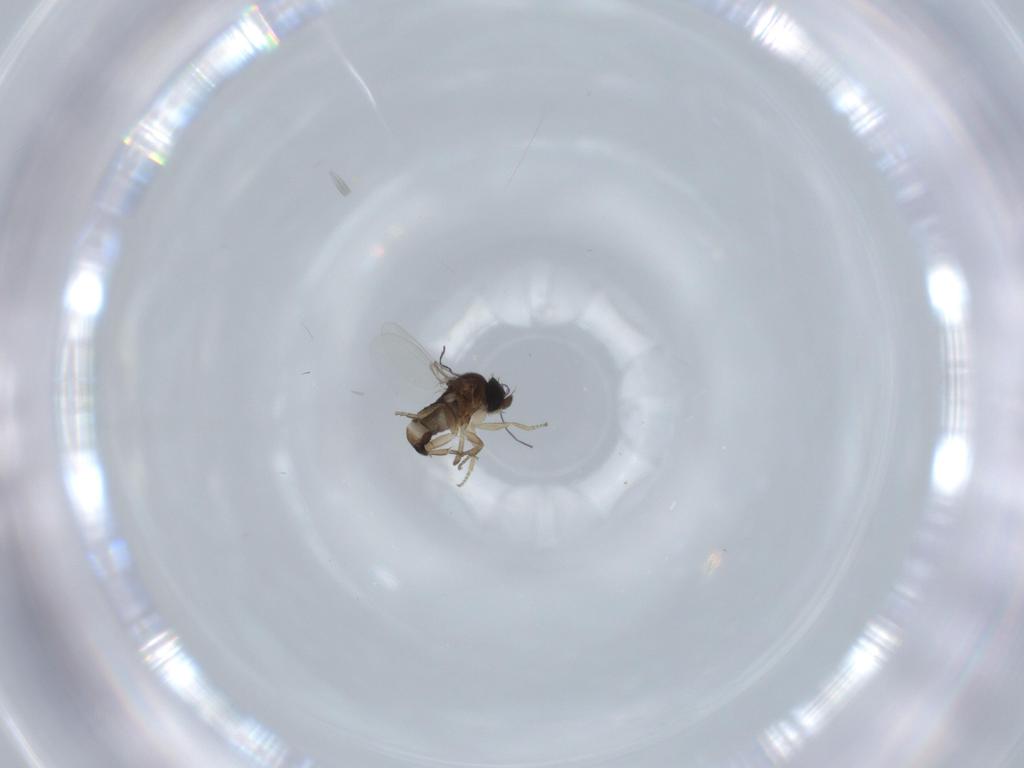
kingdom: Animalia
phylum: Arthropoda
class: Insecta
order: Diptera
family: Phoridae
